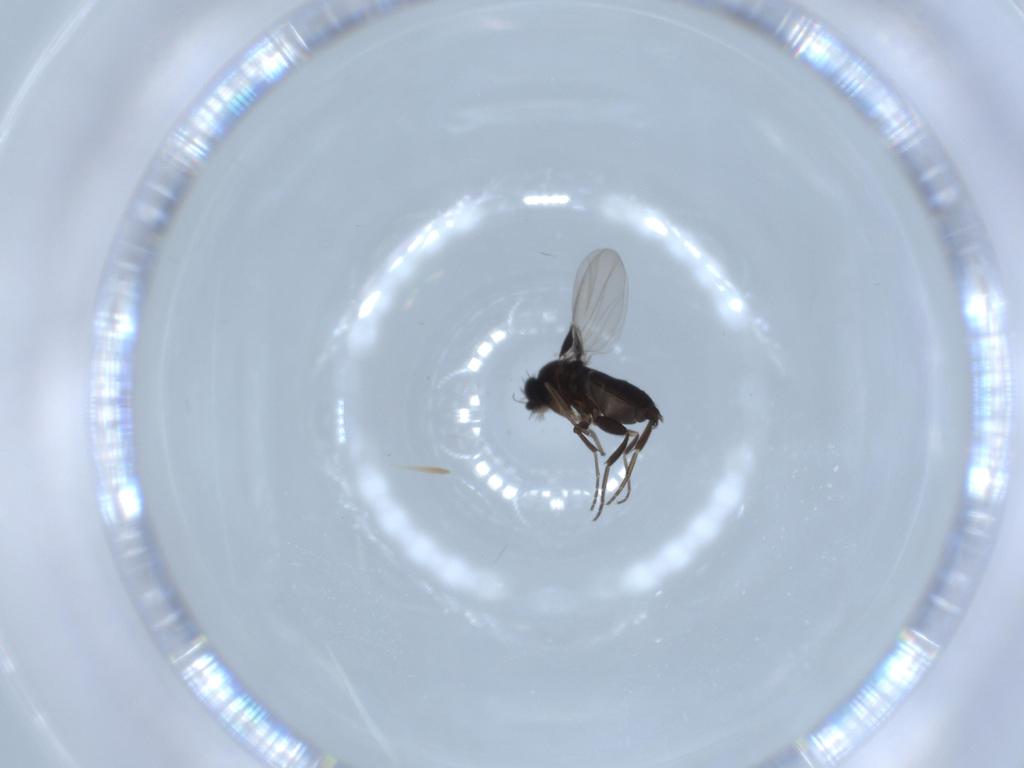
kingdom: Animalia
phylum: Arthropoda
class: Insecta
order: Diptera
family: Phoridae
